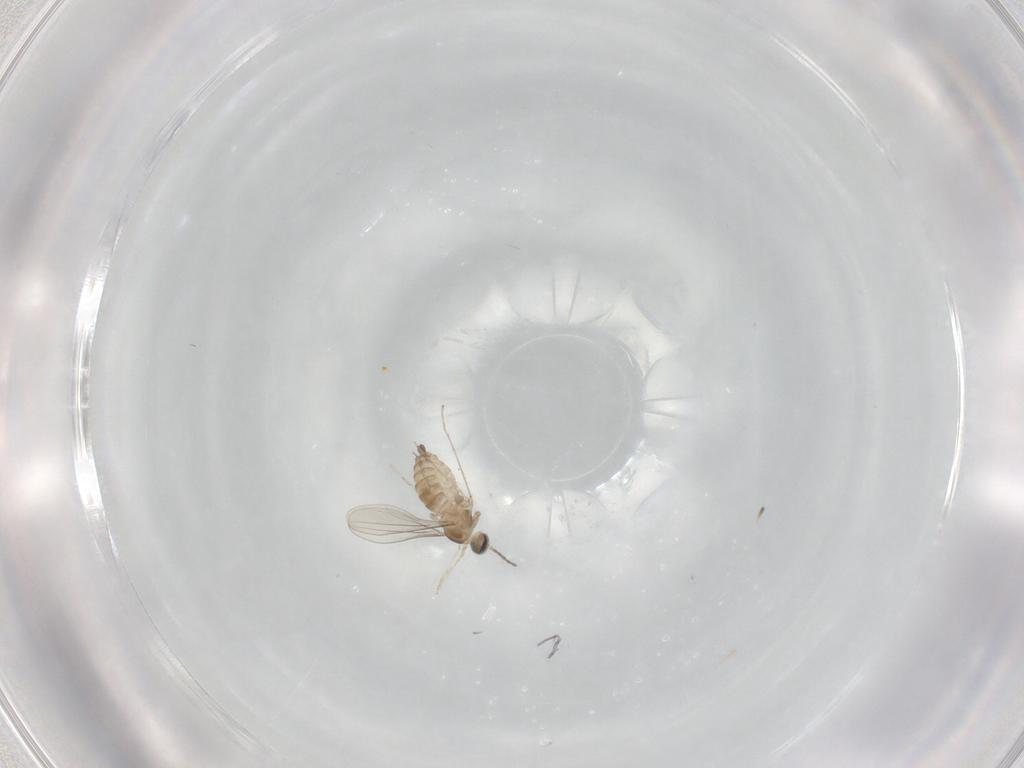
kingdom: Animalia
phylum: Arthropoda
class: Insecta
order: Diptera
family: Cecidomyiidae
